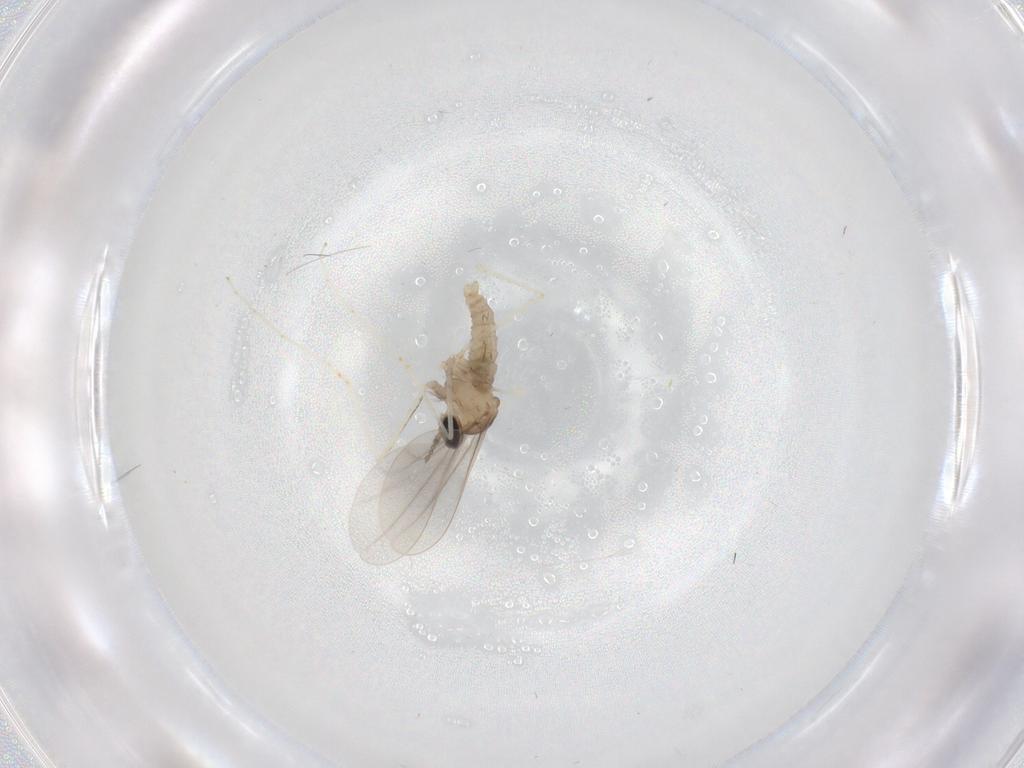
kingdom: Animalia
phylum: Arthropoda
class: Insecta
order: Diptera
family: Cecidomyiidae
